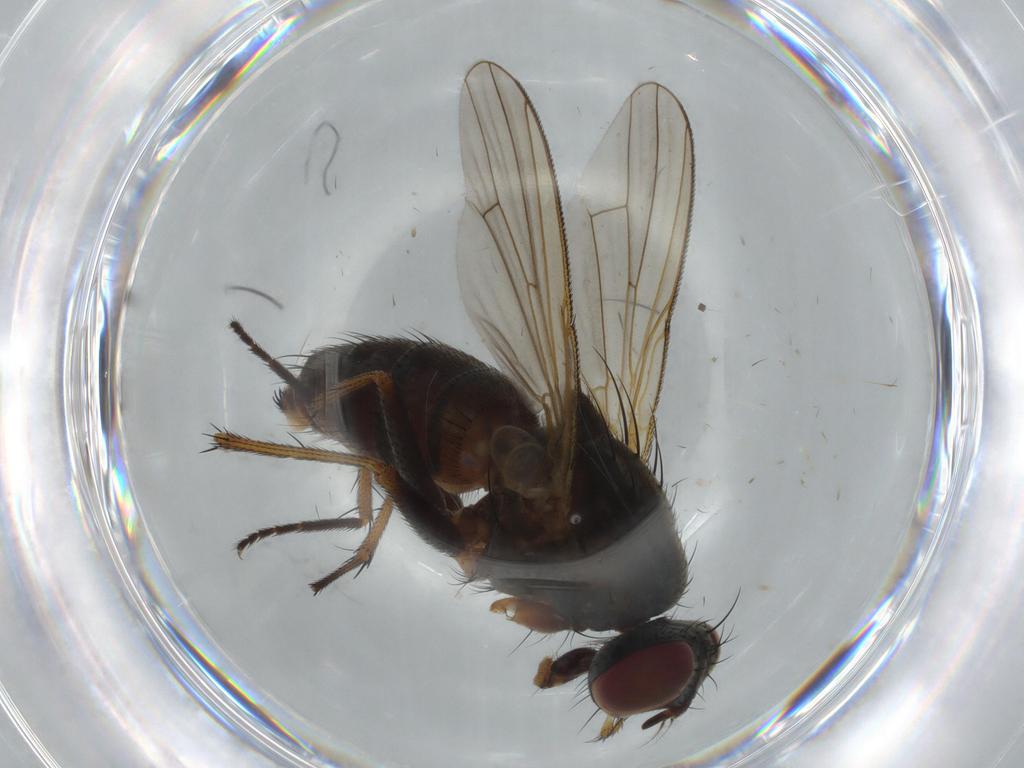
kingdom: Animalia
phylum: Arthropoda
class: Insecta
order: Diptera
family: Muscidae
